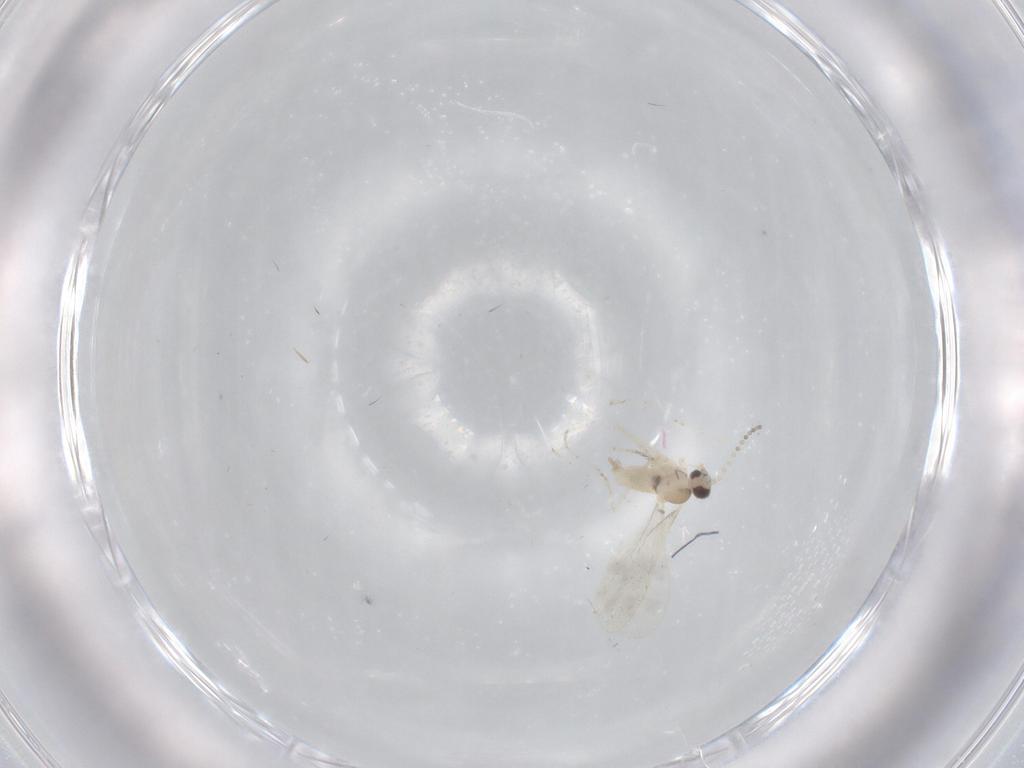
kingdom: Animalia
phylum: Arthropoda
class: Insecta
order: Diptera
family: Cecidomyiidae
